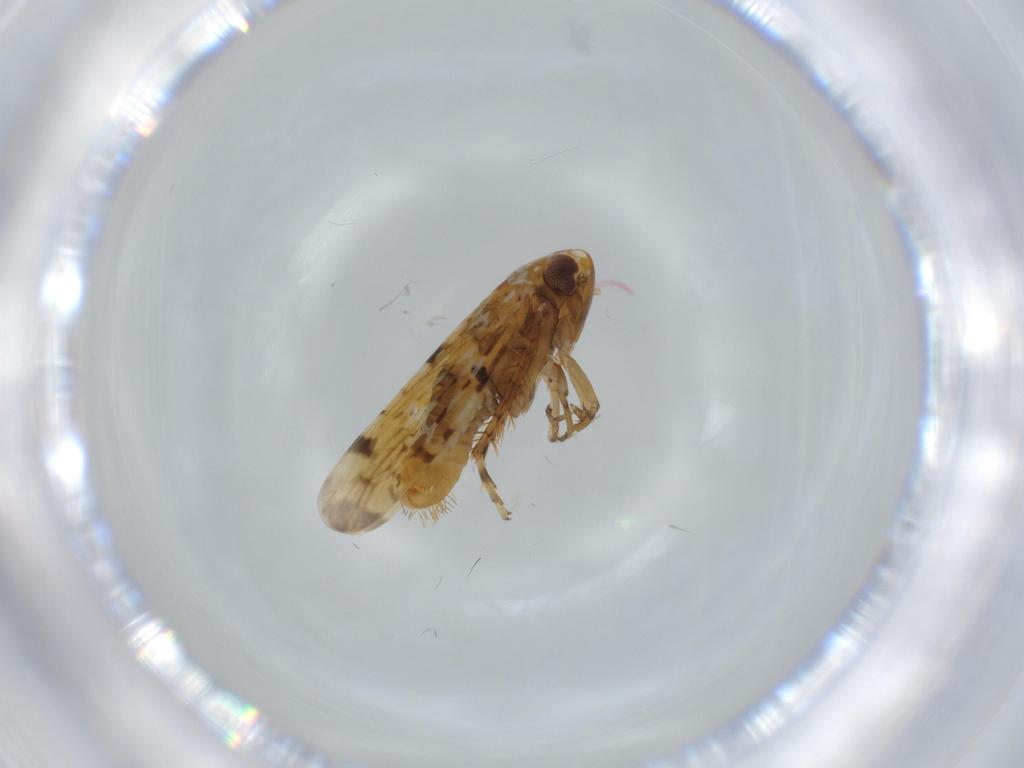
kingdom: Animalia
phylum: Arthropoda
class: Insecta
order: Hemiptera
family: Cicadellidae
